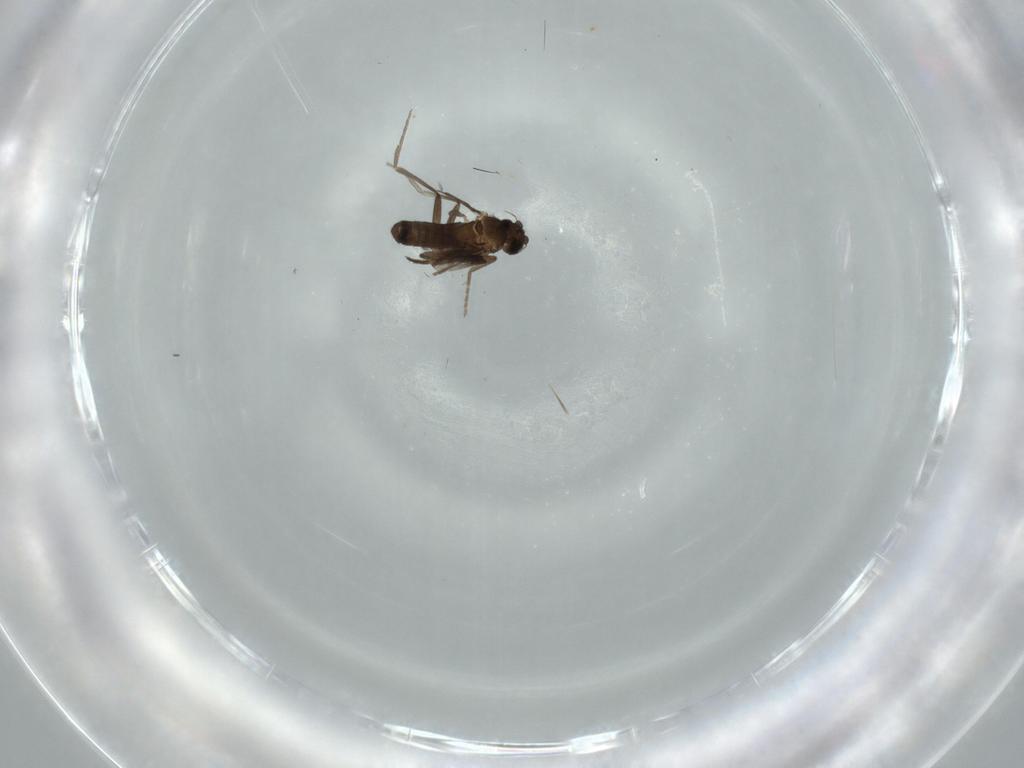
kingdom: Animalia
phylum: Arthropoda
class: Insecta
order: Diptera
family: Phoridae
